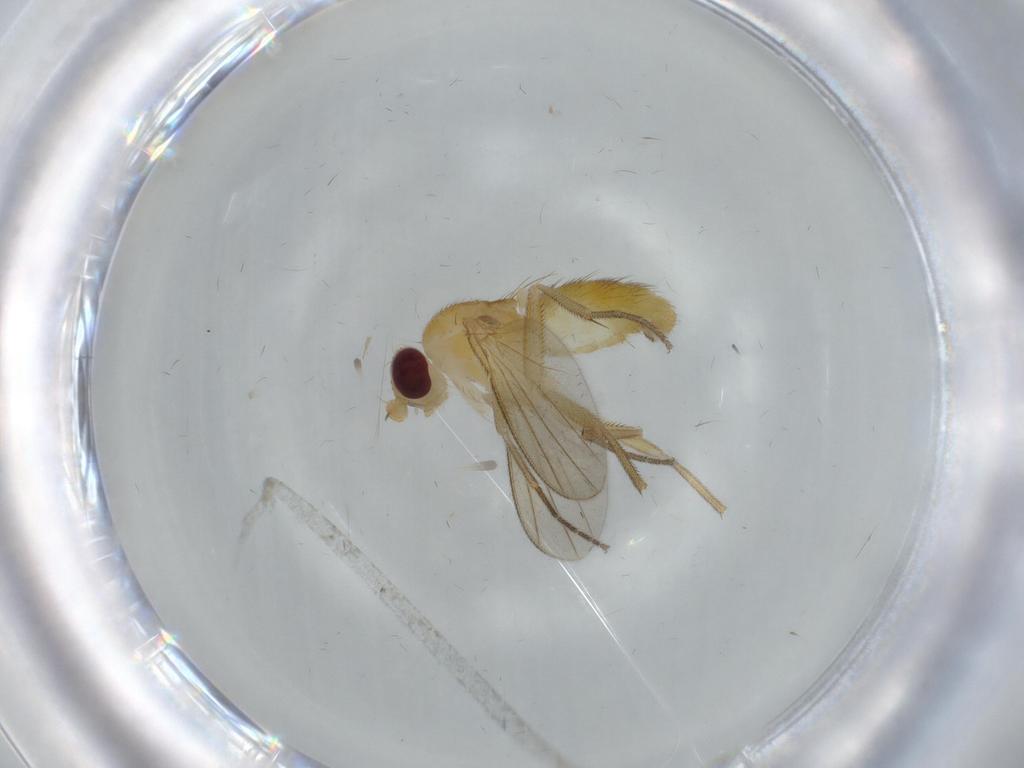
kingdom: Animalia
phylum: Arthropoda
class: Insecta
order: Diptera
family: Clusiidae
